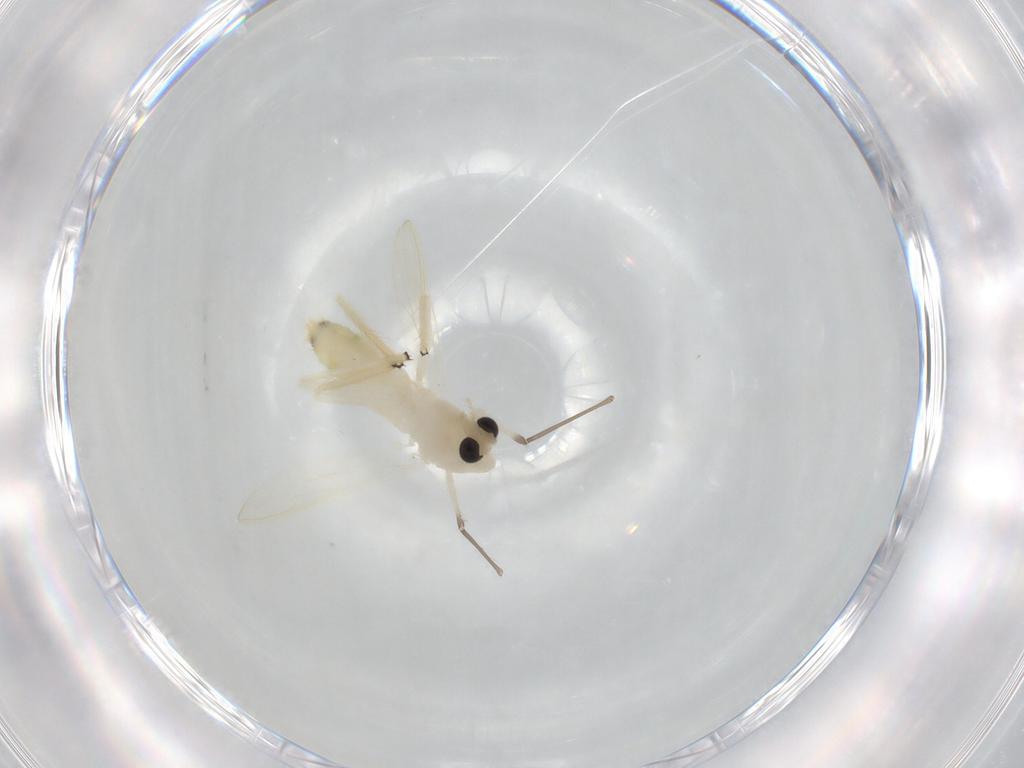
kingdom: Animalia
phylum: Arthropoda
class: Insecta
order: Diptera
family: Chironomidae
